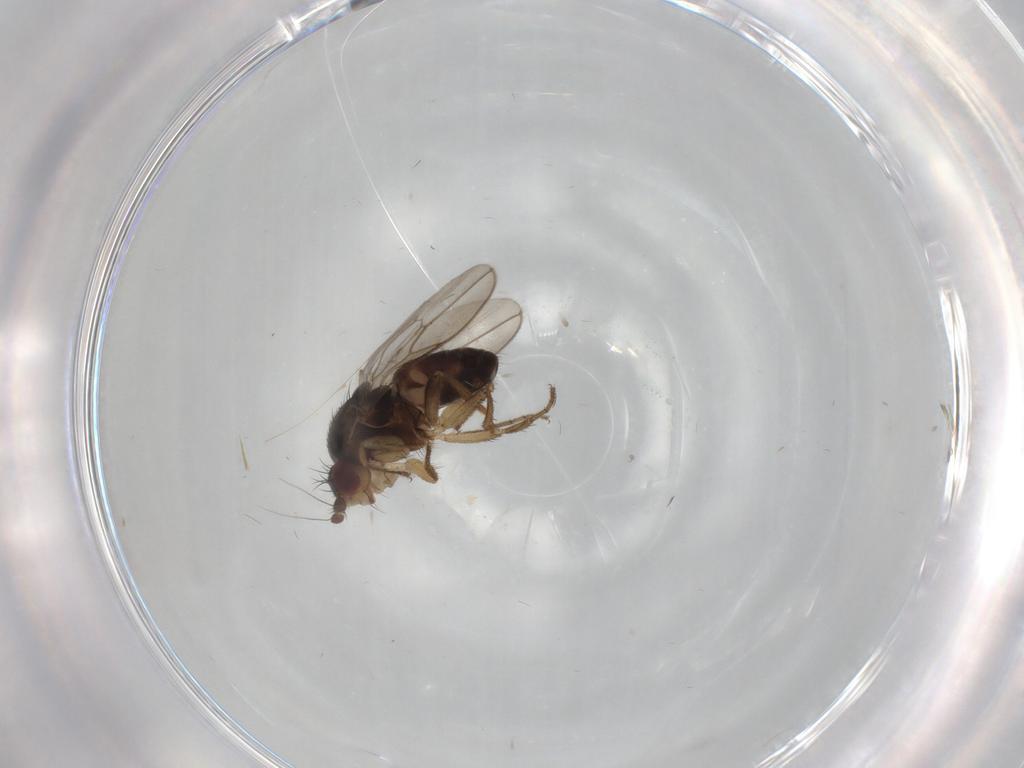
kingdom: Animalia
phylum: Arthropoda
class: Insecta
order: Diptera
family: Sphaeroceridae
